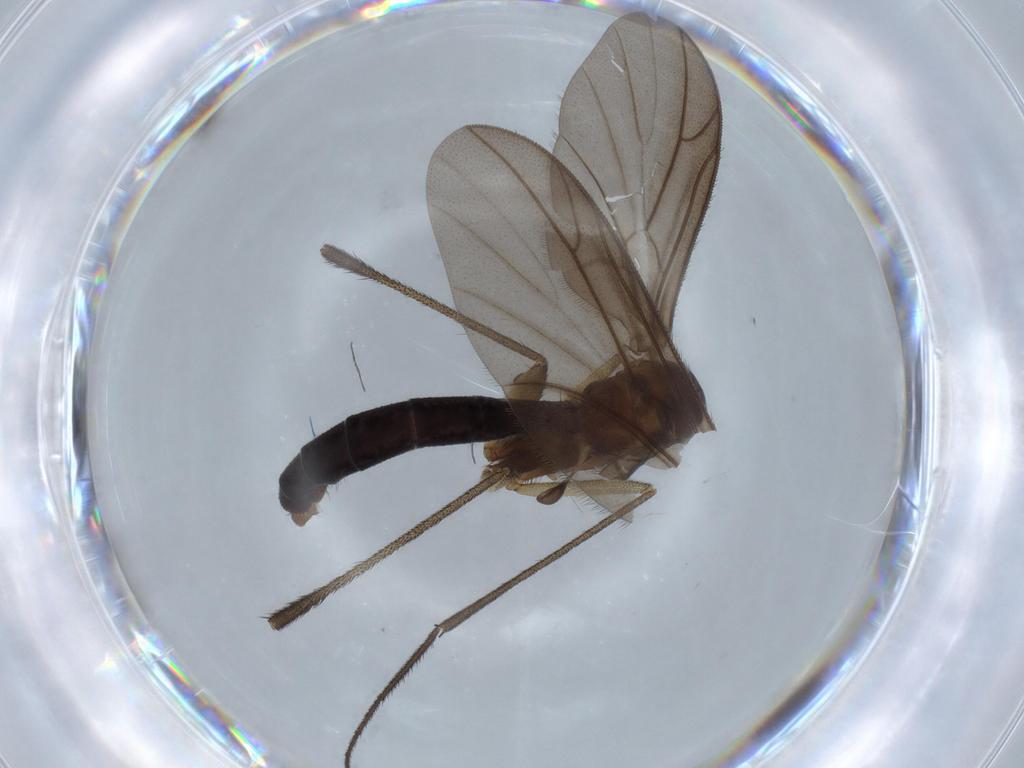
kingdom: Animalia
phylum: Arthropoda
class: Insecta
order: Diptera
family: Ditomyiidae
